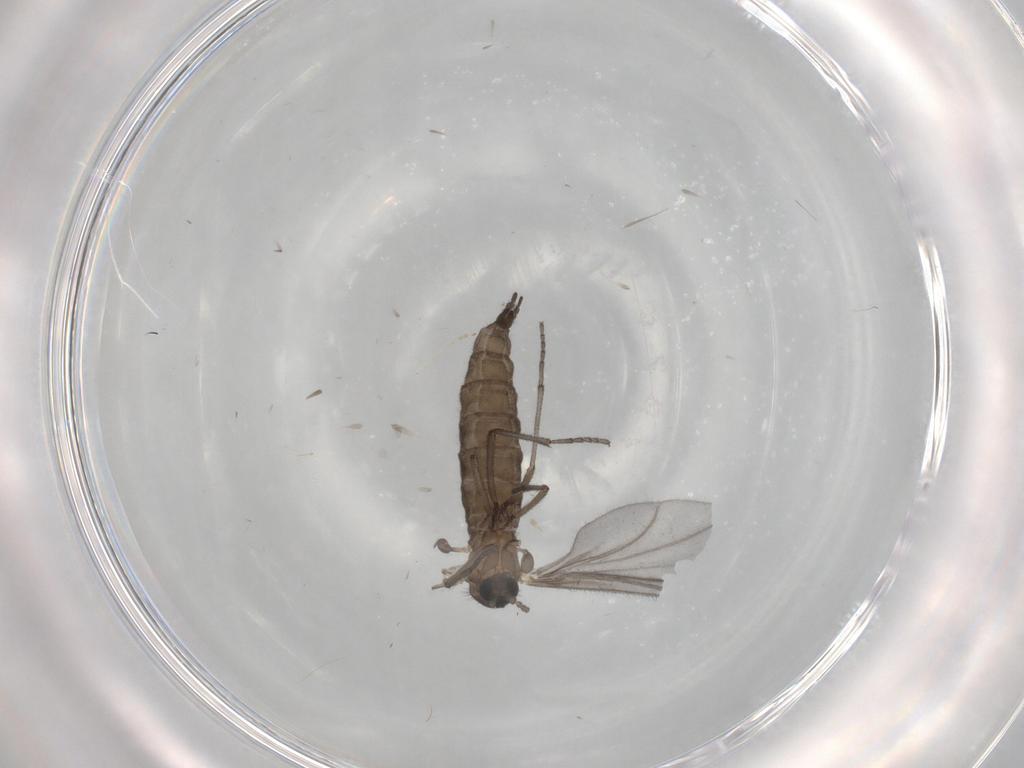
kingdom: Animalia
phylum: Arthropoda
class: Insecta
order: Diptera
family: Sciaridae
